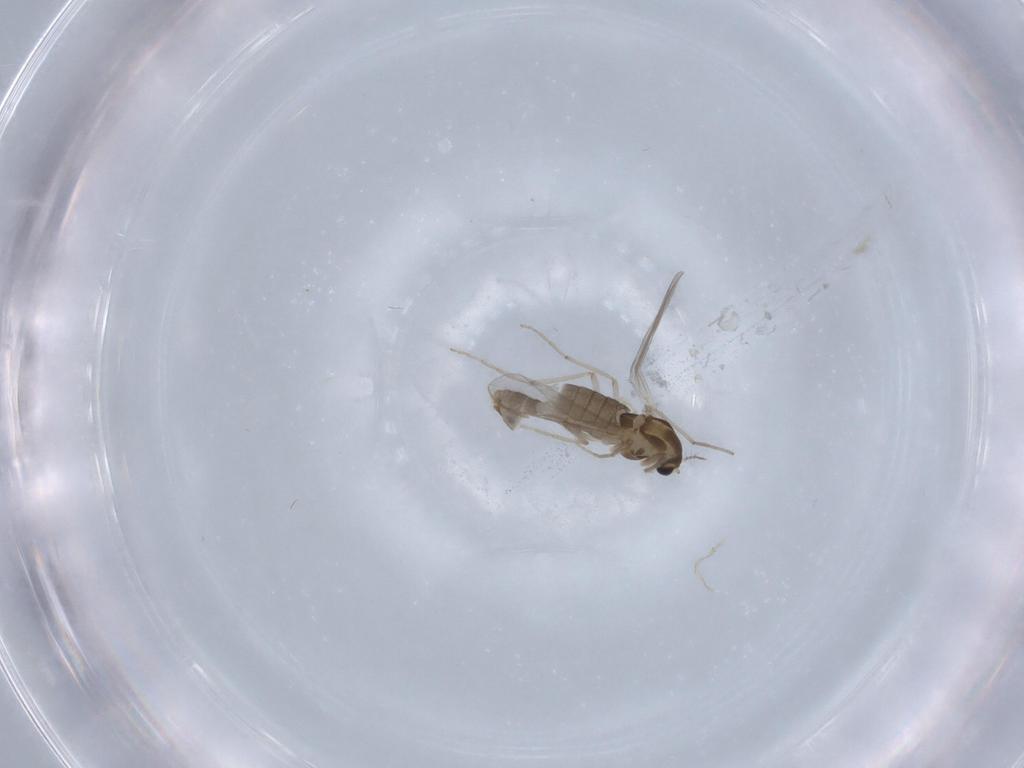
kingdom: Animalia
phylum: Arthropoda
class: Insecta
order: Diptera
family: Chironomidae
